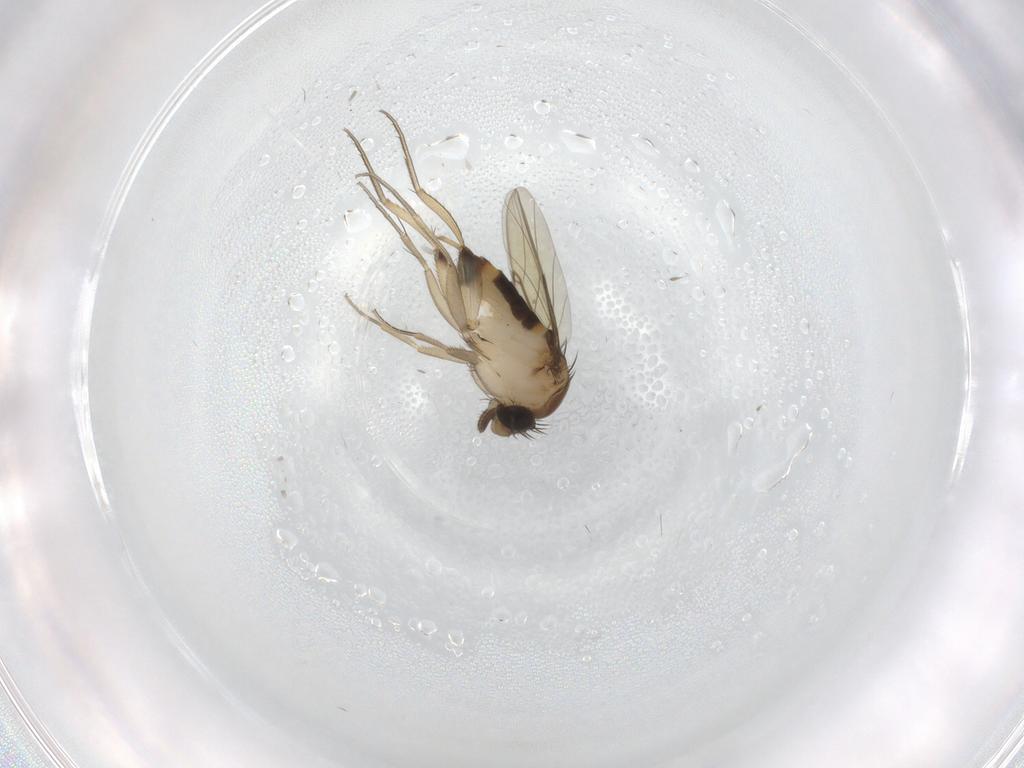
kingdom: Animalia
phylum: Arthropoda
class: Insecta
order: Diptera
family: Phoridae
